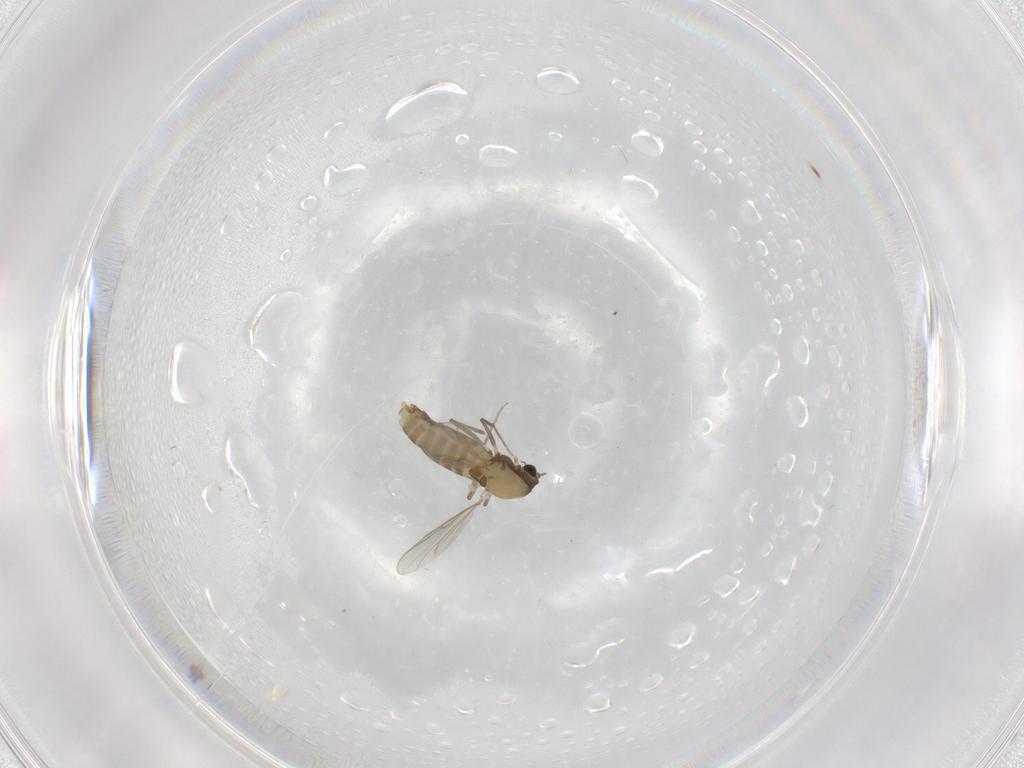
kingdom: Animalia
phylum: Arthropoda
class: Insecta
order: Diptera
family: Chironomidae
